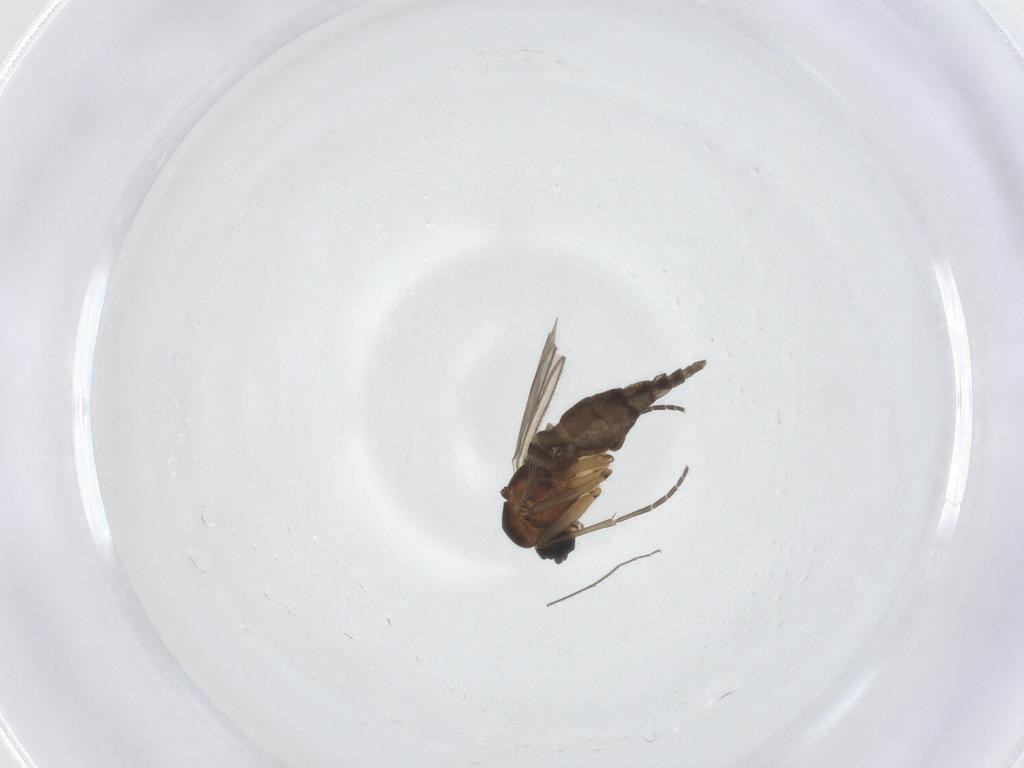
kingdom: Animalia
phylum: Arthropoda
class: Insecta
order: Diptera
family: Sciaridae
